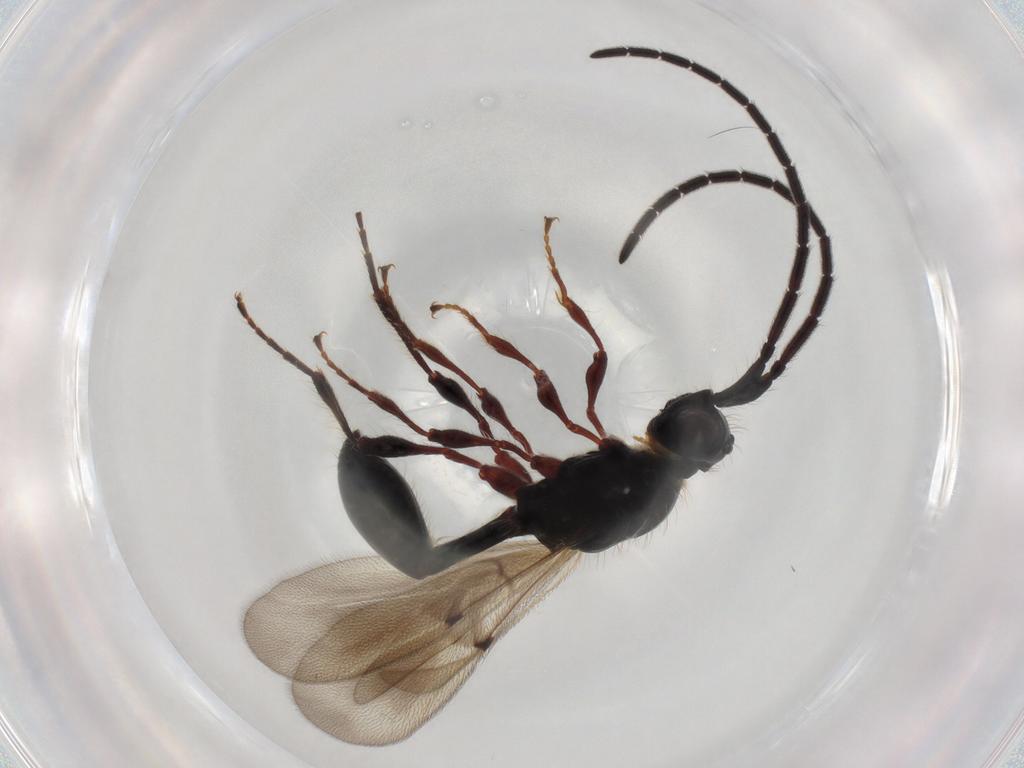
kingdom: Animalia
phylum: Arthropoda
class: Insecta
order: Hymenoptera
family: Diapriidae
